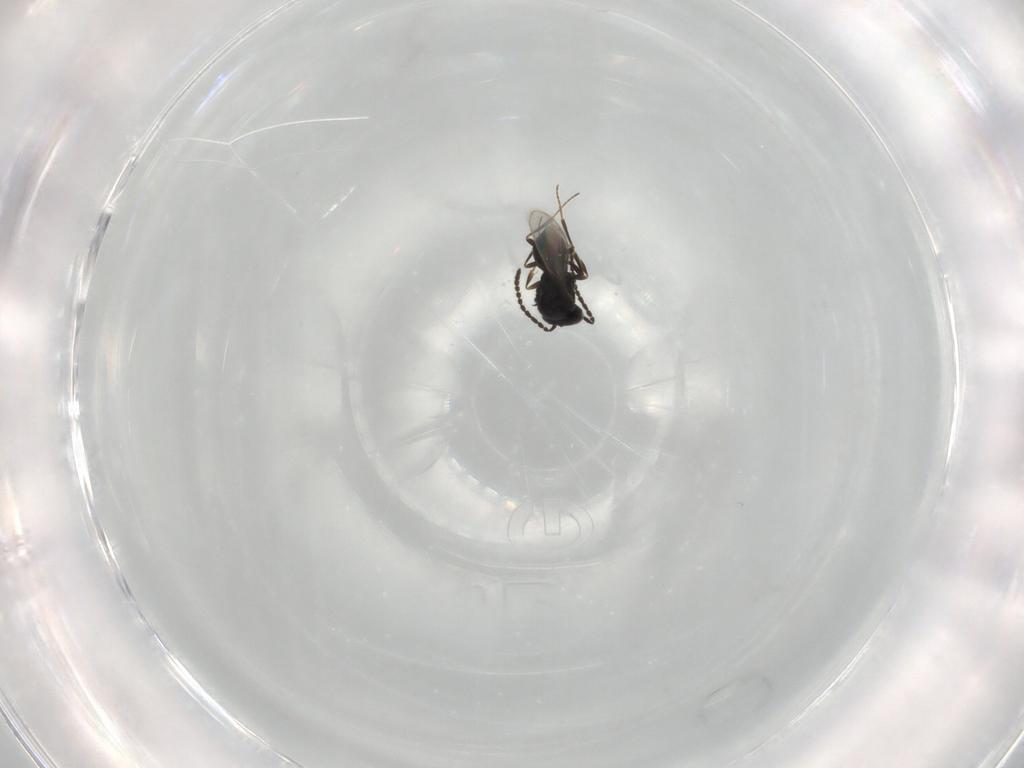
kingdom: Animalia
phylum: Arthropoda
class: Insecta
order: Hymenoptera
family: Scelionidae
